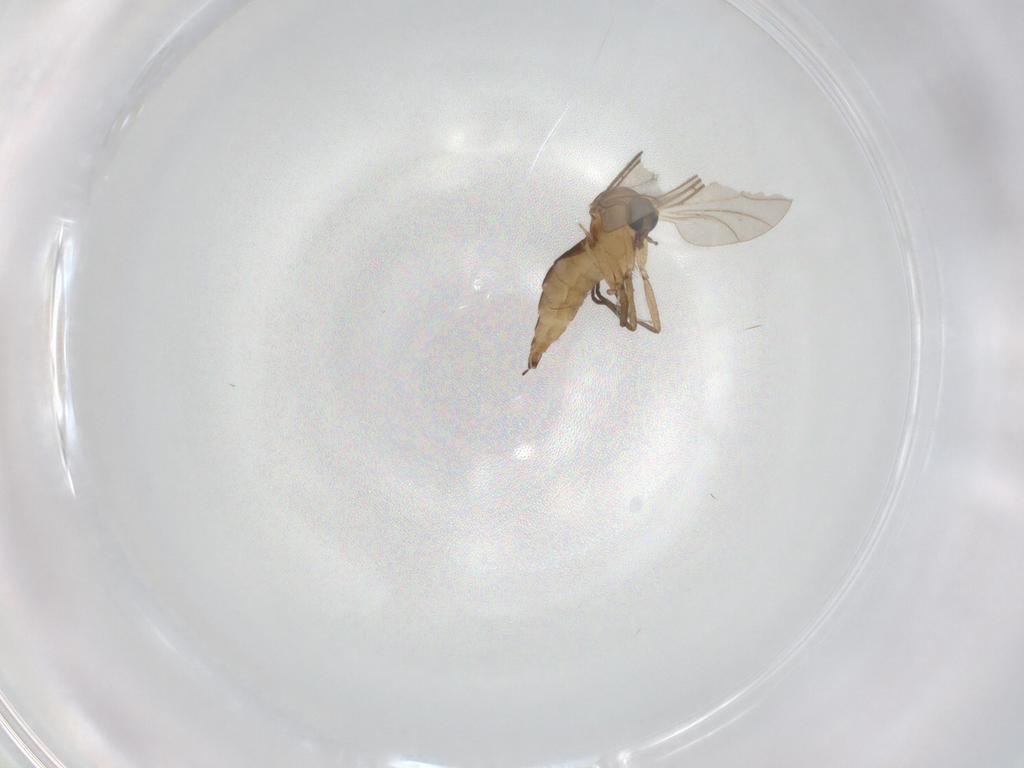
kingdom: Animalia
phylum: Arthropoda
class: Insecta
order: Diptera
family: Sciaridae
